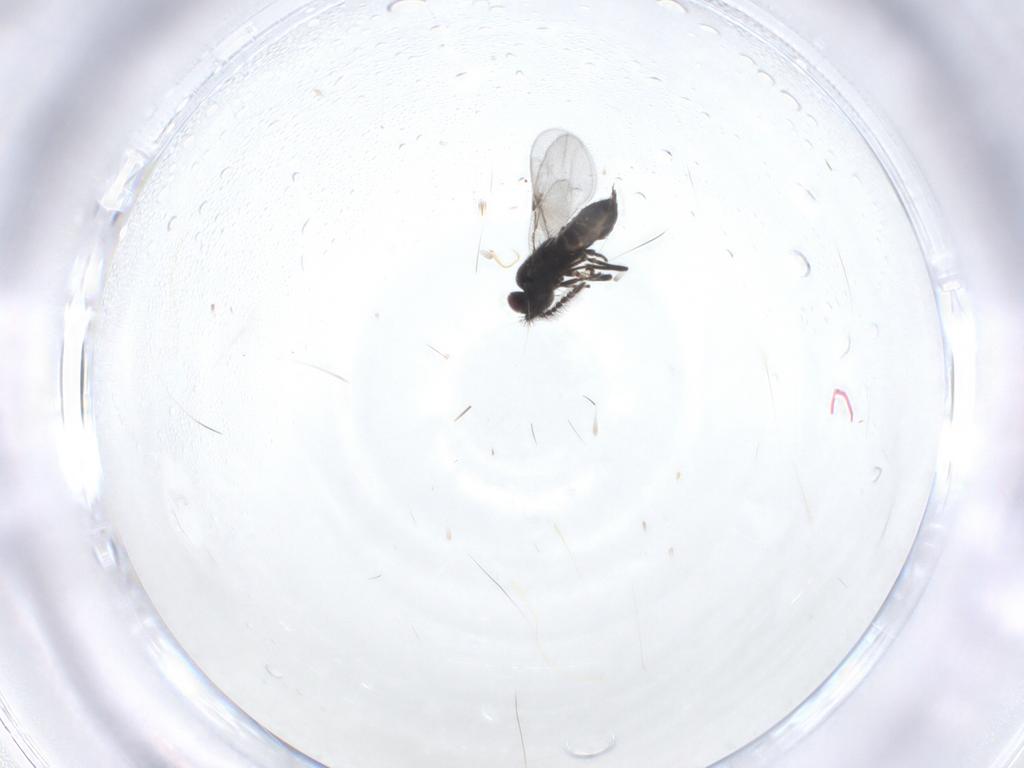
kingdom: Animalia
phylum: Arthropoda
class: Insecta
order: Hymenoptera
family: Encyrtidae
